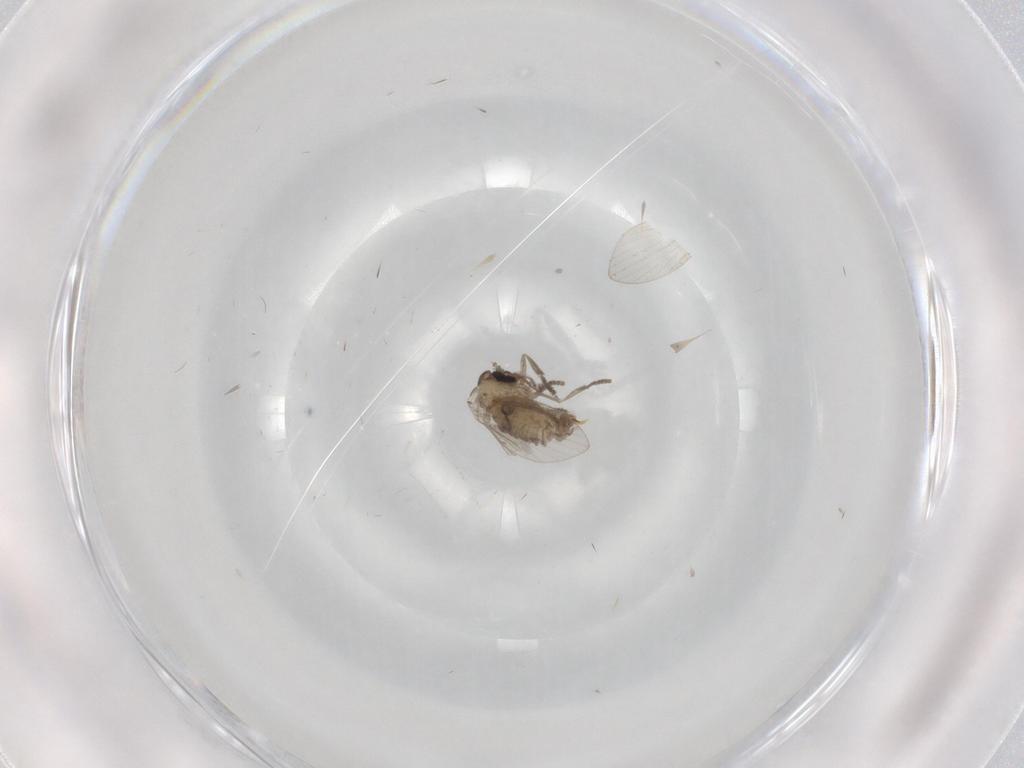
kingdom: Animalia
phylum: Arthropoda
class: Insecta
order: Diptera
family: Psychodidae
